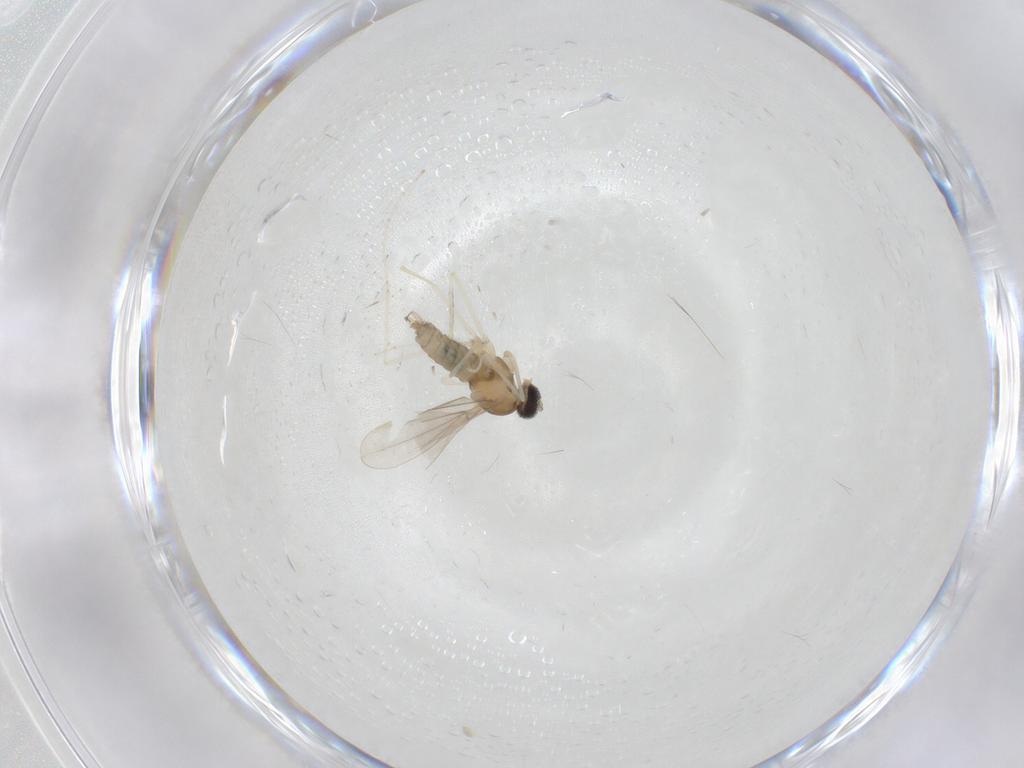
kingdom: Animalia
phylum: Arthropoda
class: Insecta
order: Diptera
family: Cecidomyiidae
